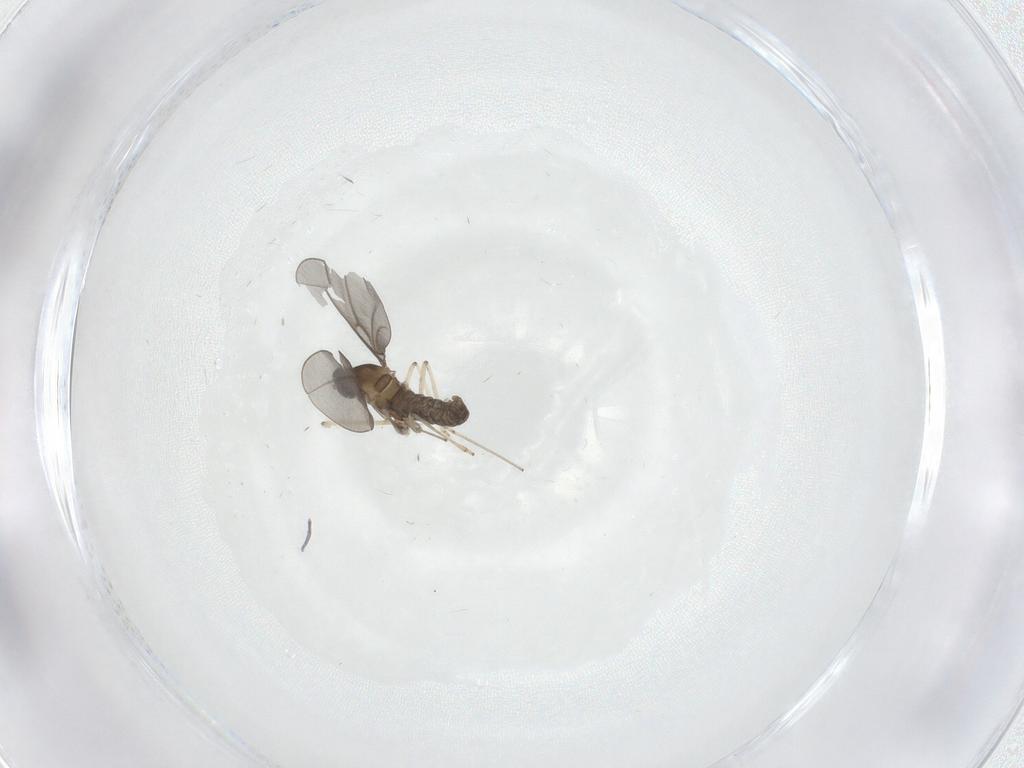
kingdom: Animalia
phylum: Arthropoda
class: Insecta
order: Diptera
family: Cecidomyiidae
